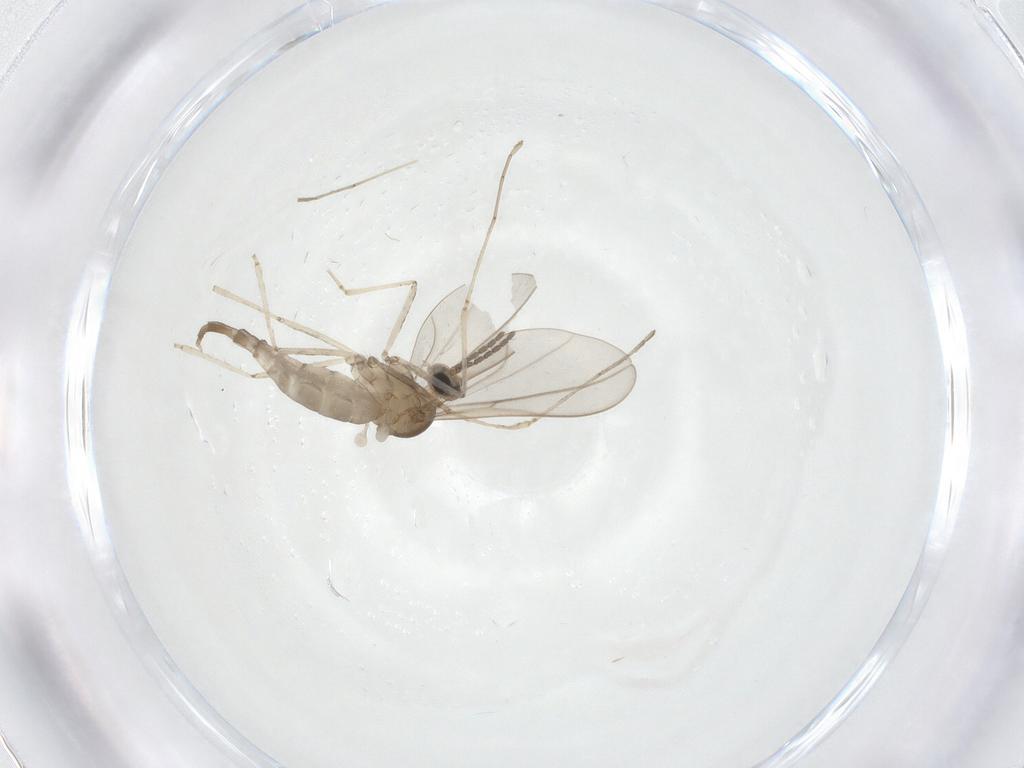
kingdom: Animalia
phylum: Arthropoda
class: Insecta
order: Diptera
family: Cecidomyiidae
